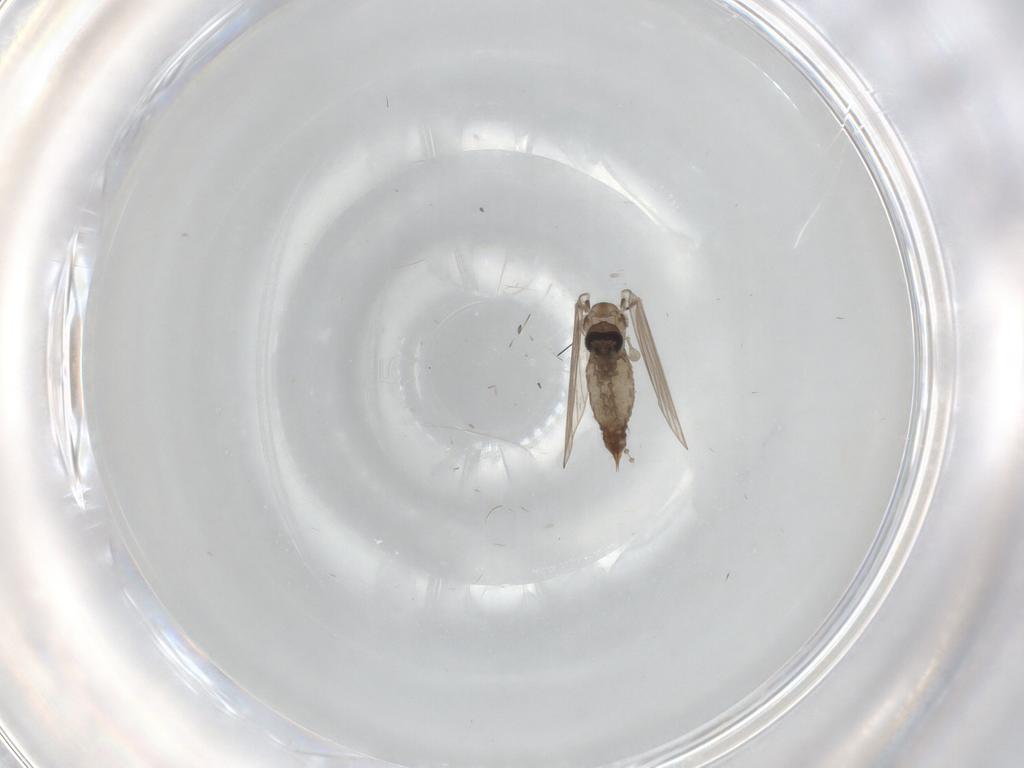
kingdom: Animalia
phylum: Arthropoda
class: Insecta
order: Diptera
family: Psychodidae
